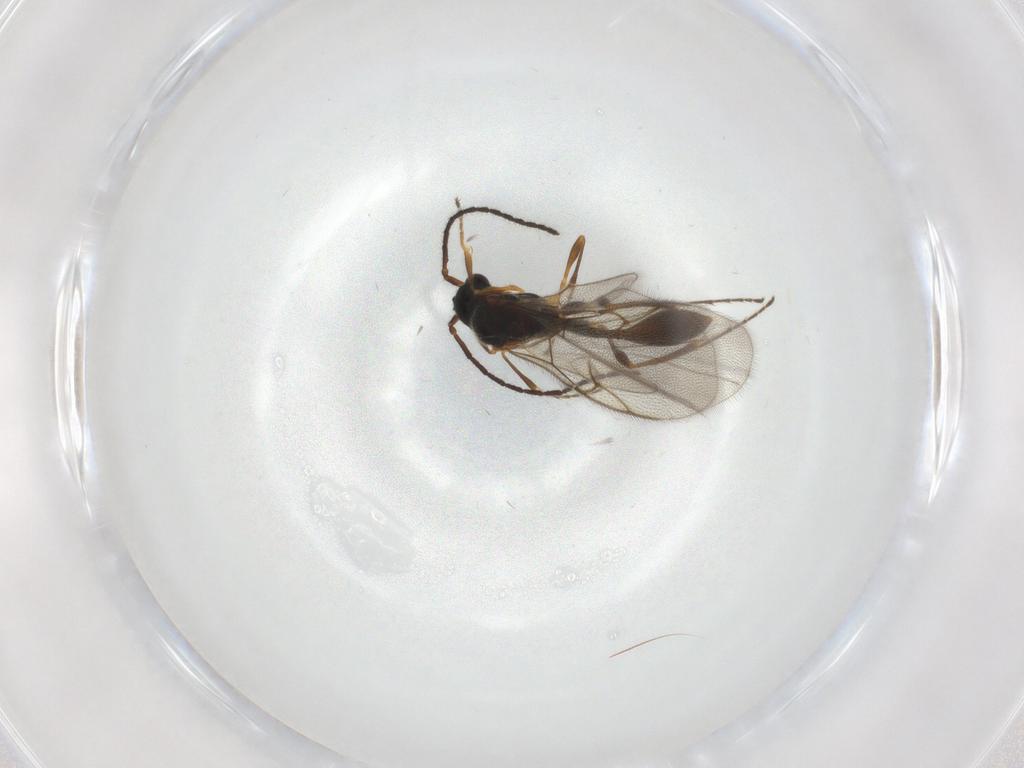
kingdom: Animalia
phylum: Arthropoda
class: Insecta
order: Hymenoptera
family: Diapriidae
